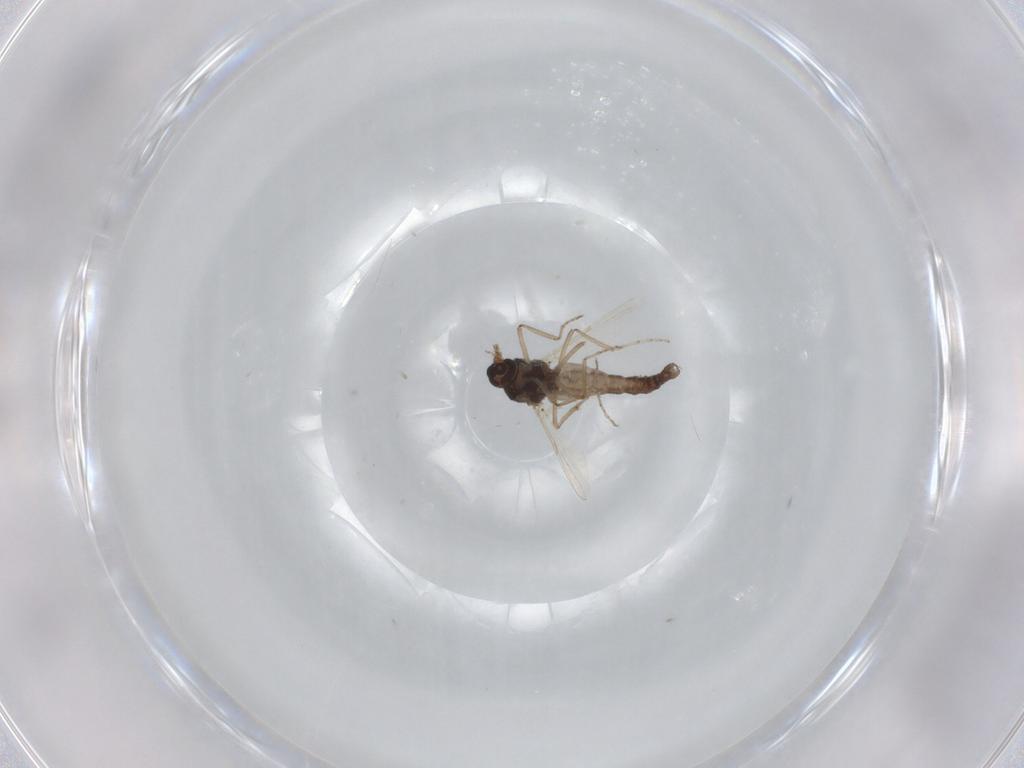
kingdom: Animalia
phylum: Arthropoda
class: Insecta
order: Diptera
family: Ceratopogonidae
